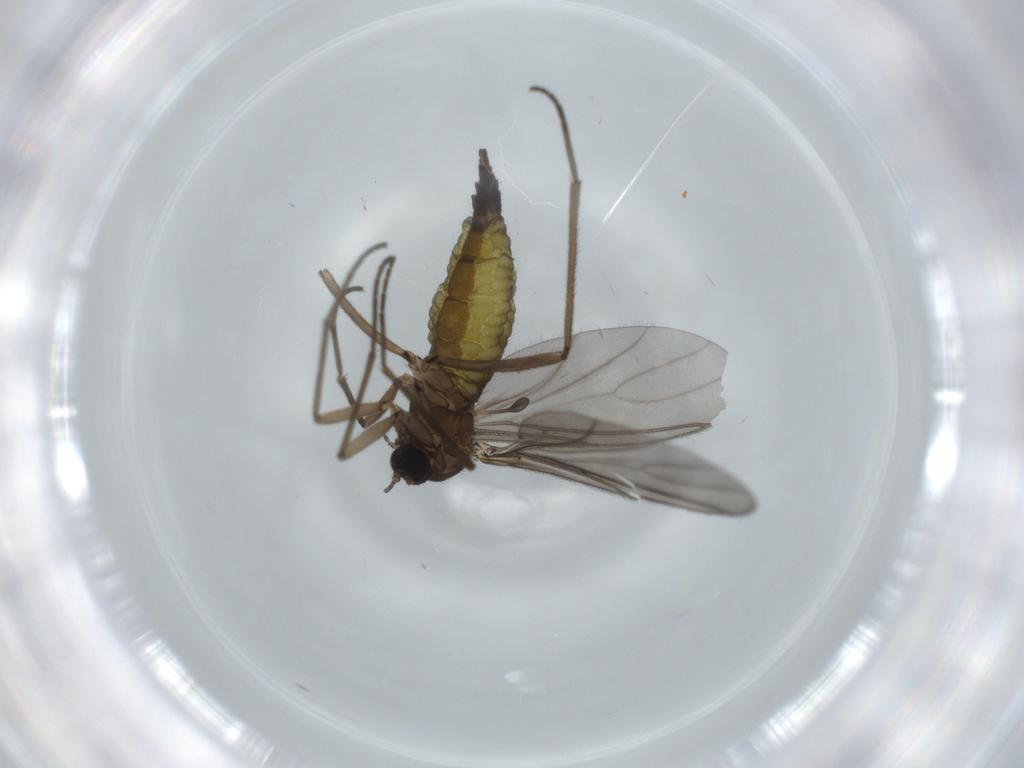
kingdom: Animalia
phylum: Arthropoda
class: Insecta
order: Diptera
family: Sciaridae
